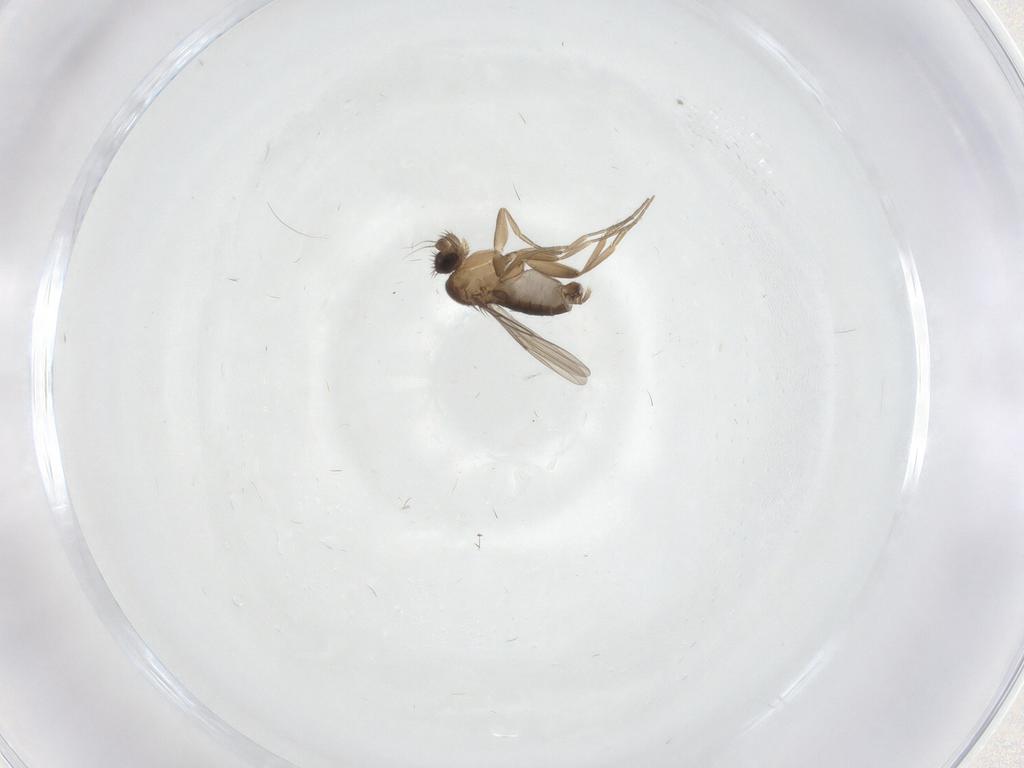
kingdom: Animalia
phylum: Arthropoda
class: Insecta
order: Diptera
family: Phoridae
